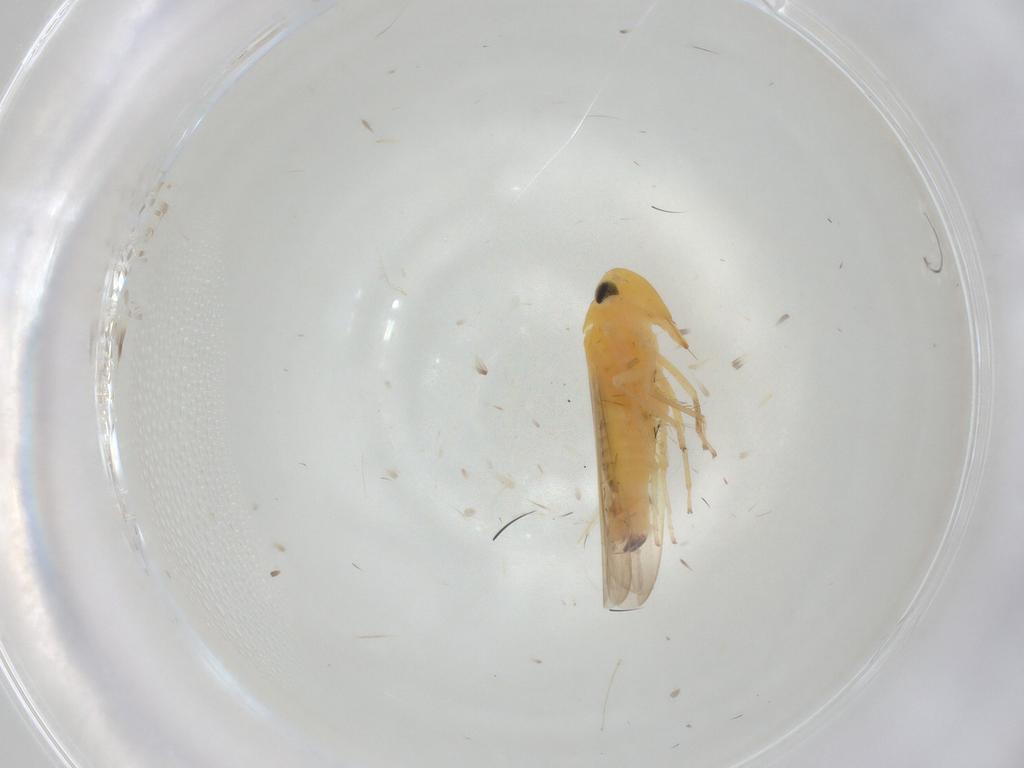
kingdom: Animalia
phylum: Arthropoda
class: Insecta
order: Hemiptera
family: Cicadellidae
